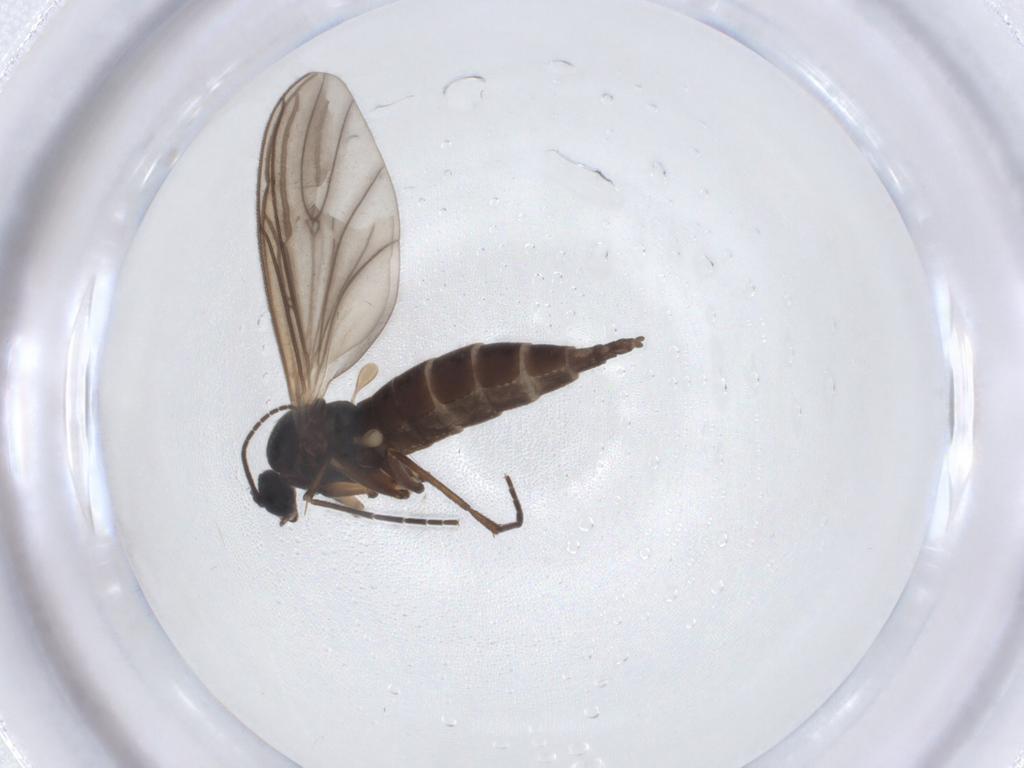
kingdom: Animalia
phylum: Arthropoda
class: Insecta
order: Diptera
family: Sciaridae
